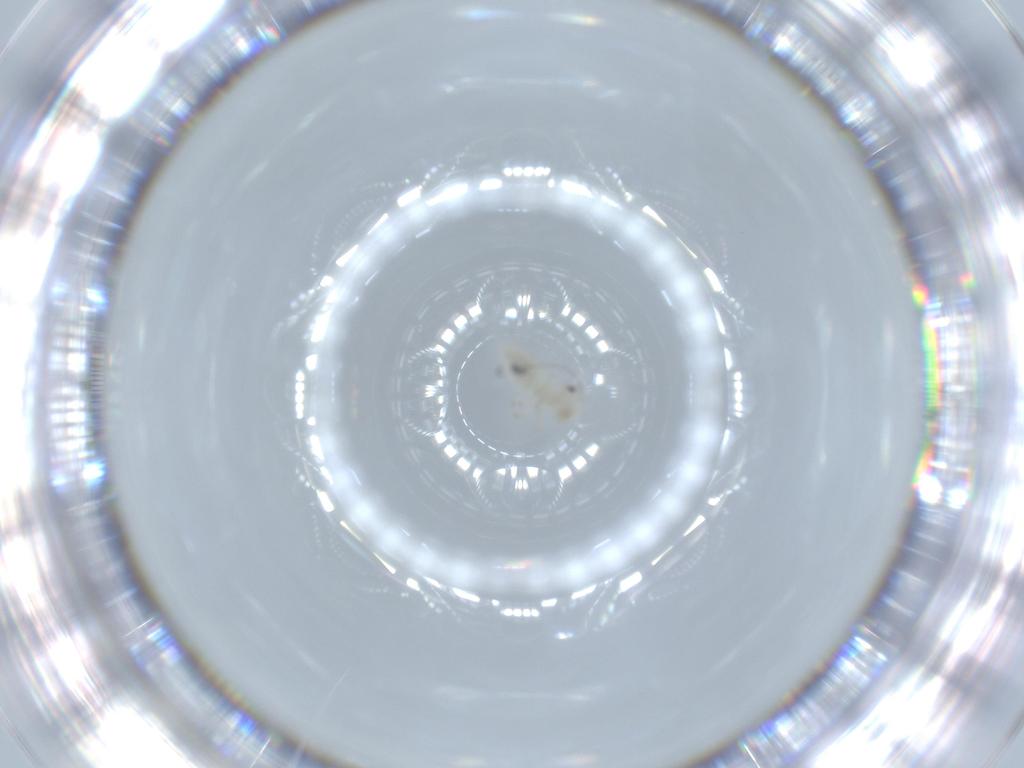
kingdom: Animalia
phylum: Arthropoda
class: Insecta
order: Psocodea
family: Caeciliusidae
